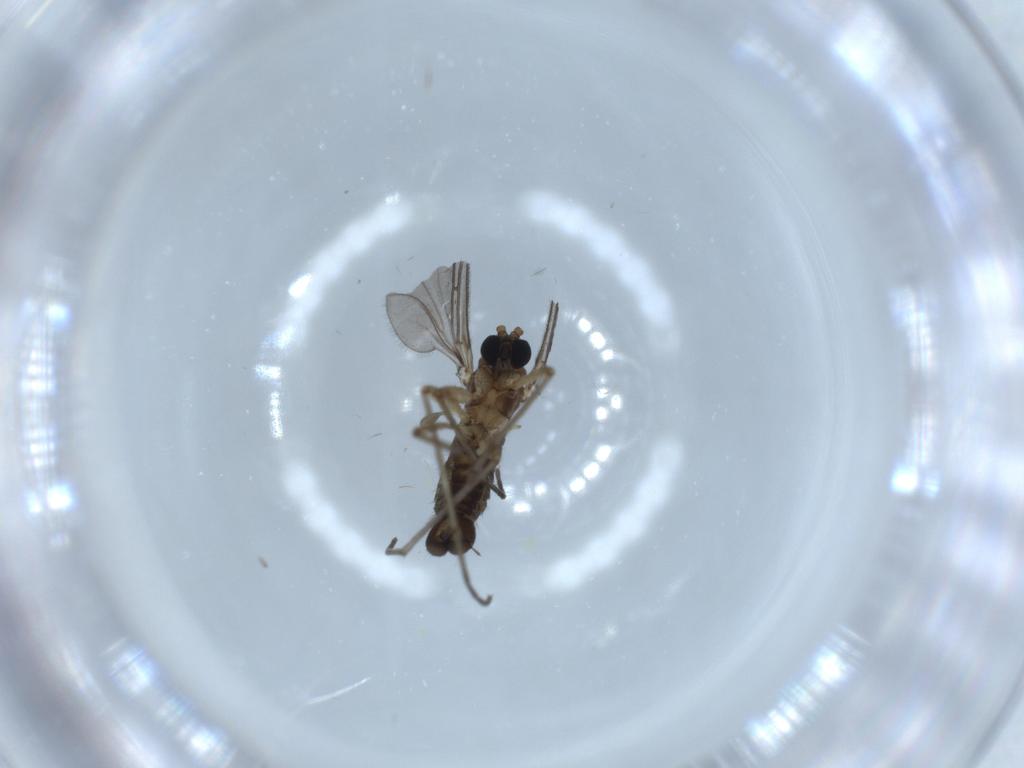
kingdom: Animalia
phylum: Arthropoda
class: Insecta
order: Diptera
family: Sciaridae
